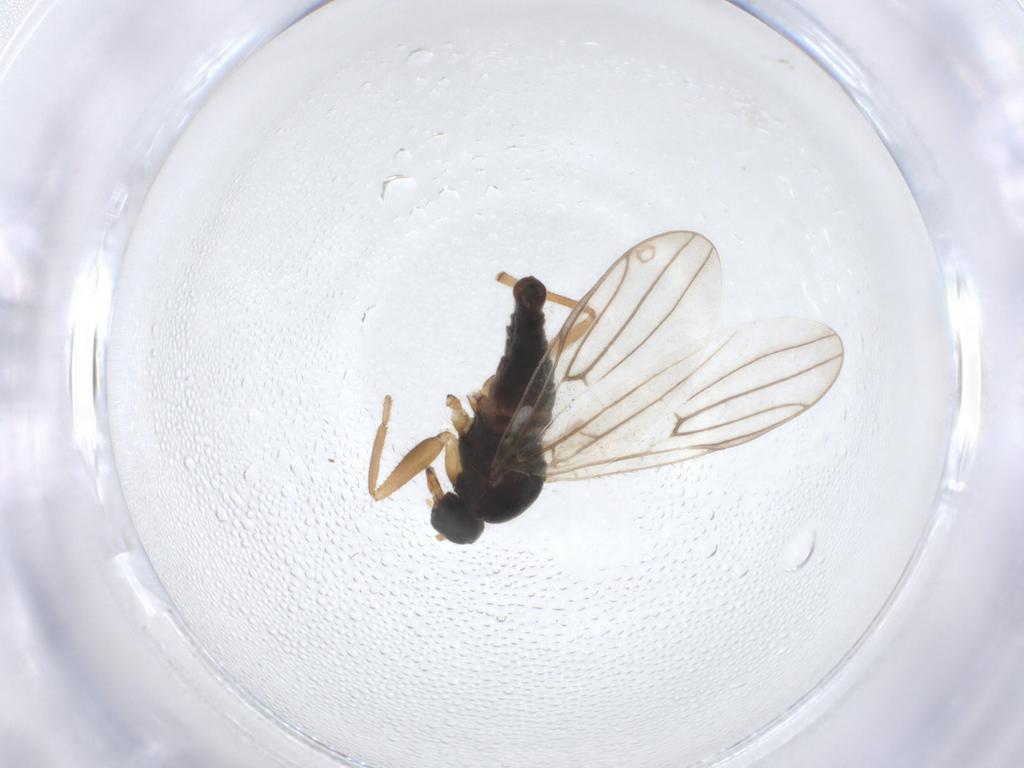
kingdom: Animalia
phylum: Arthropoda
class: Insecta
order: Diptera
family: Hybotidae
